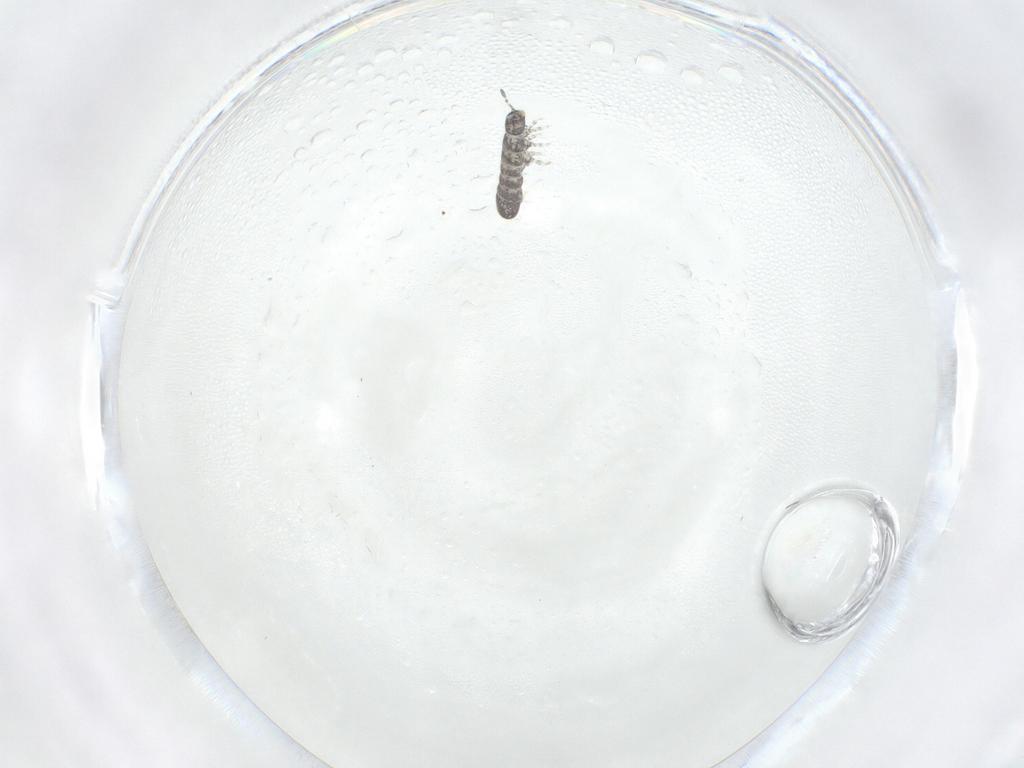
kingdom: Animalia
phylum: Arthropoda
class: Collembola
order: Entomobryomorpha
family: Isotomidae
